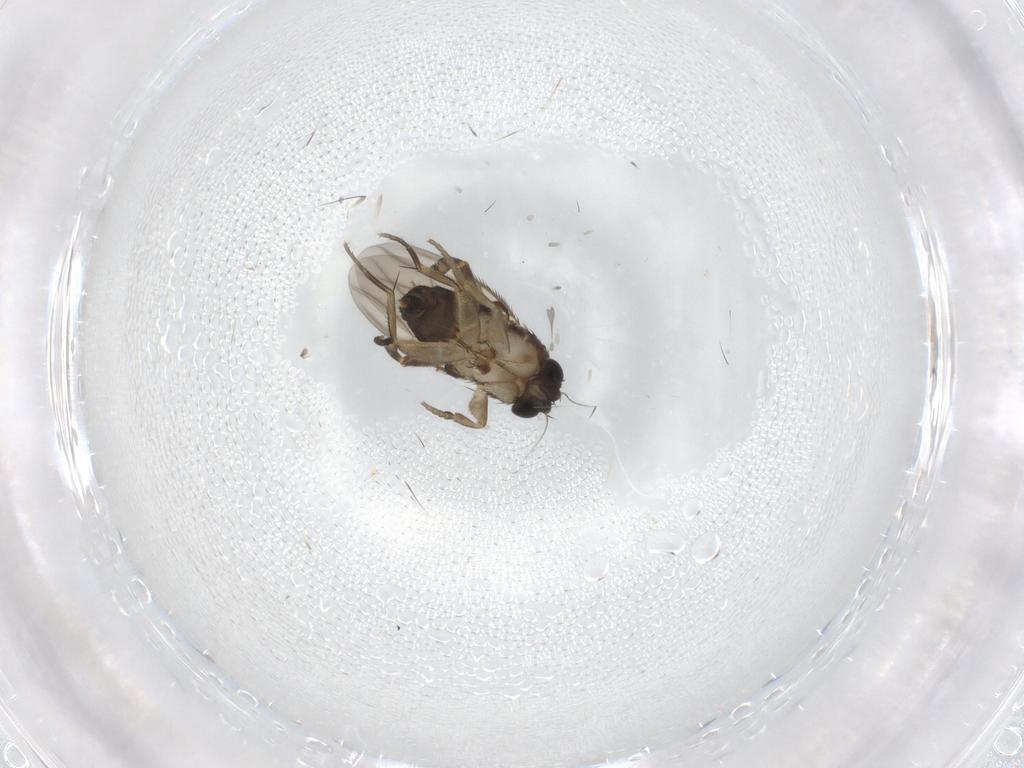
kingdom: Animalia
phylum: Arthropoda
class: Insecta
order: Diptera
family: Phoridae
